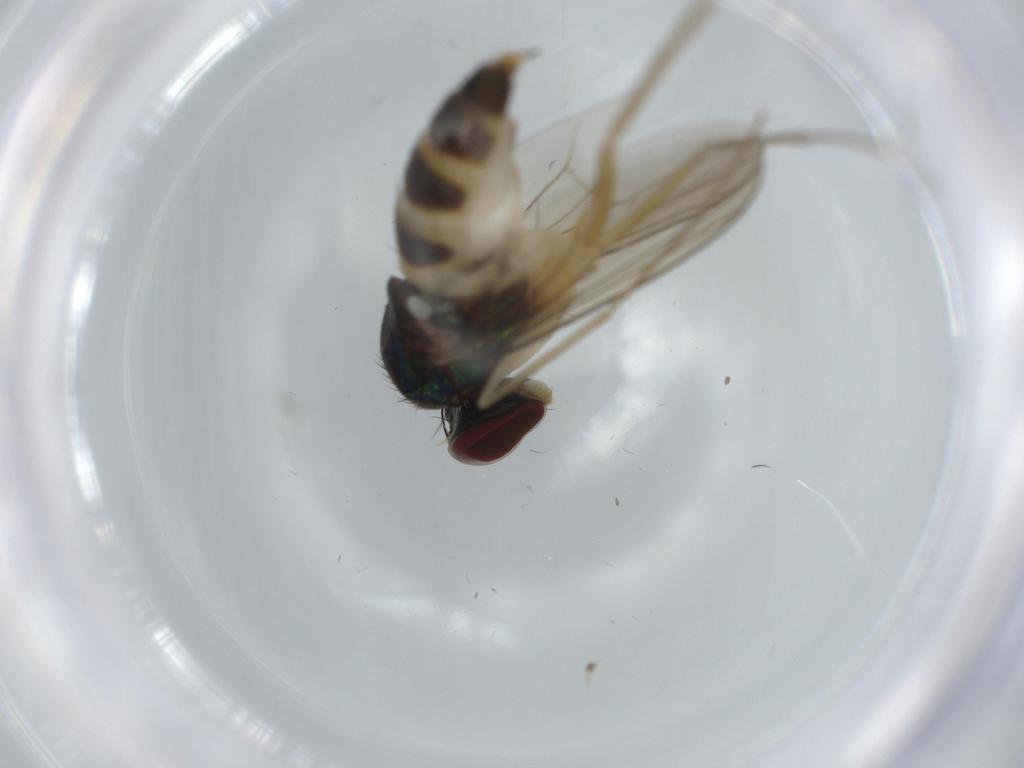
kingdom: Animalia
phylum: Arthropoda
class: Insecta
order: Diptera
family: Dolichopodidae
